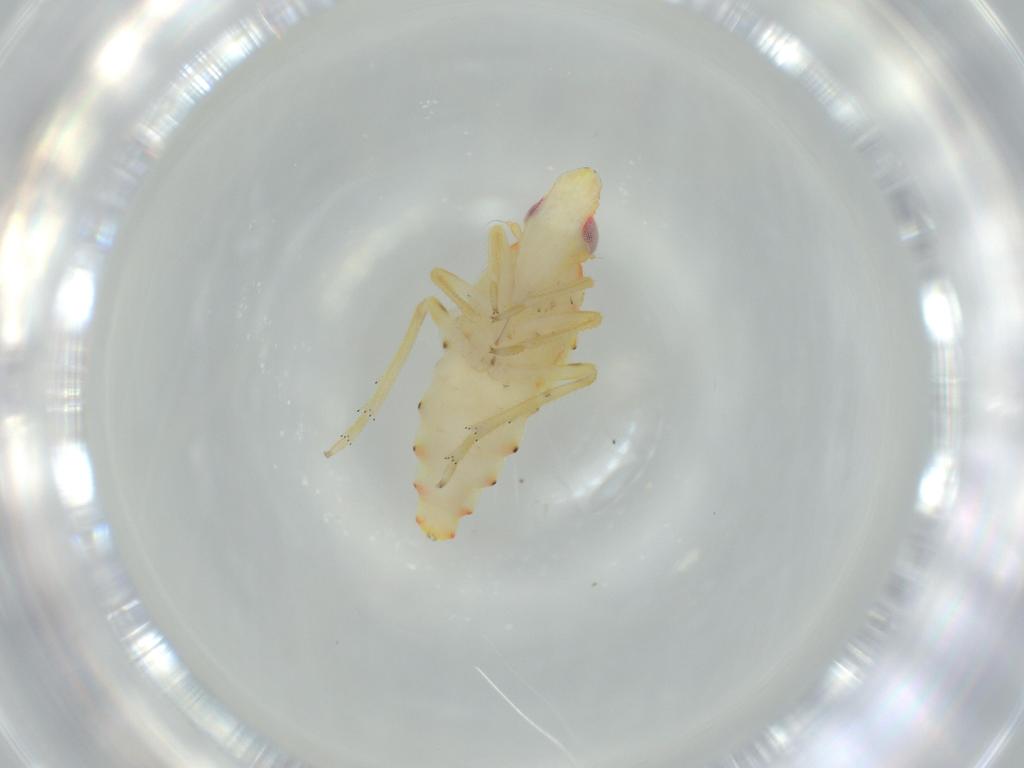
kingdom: Animalia
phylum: Arthropoda
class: Insecta
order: Hemiptera
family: Tropiduchidae
